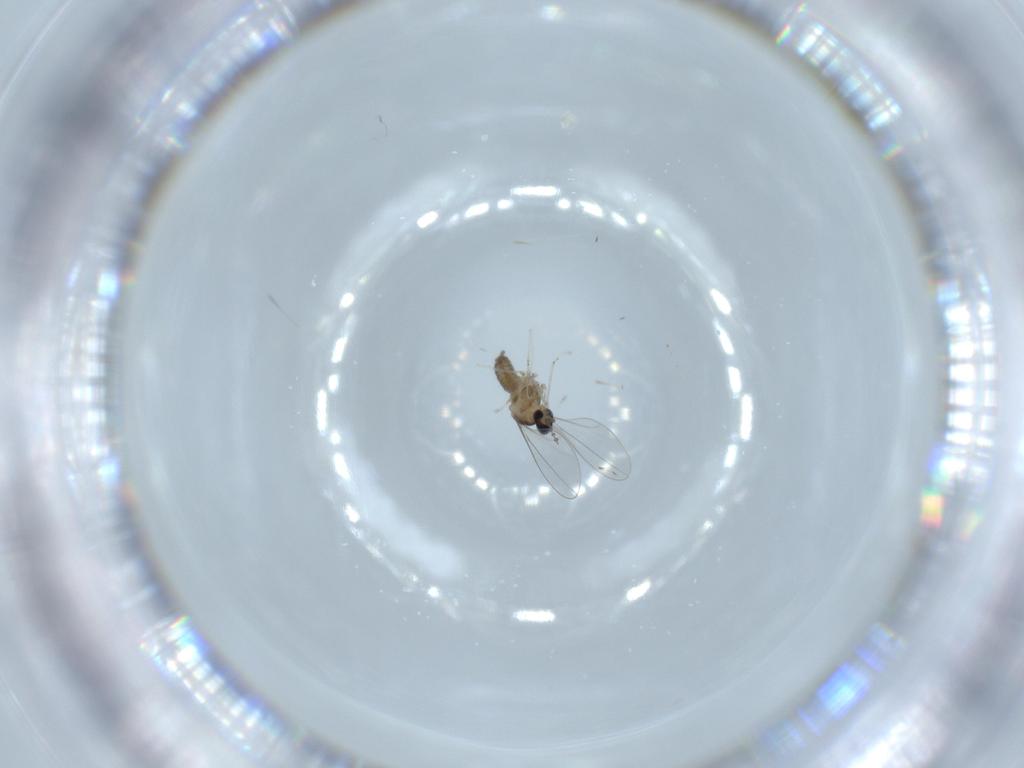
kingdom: Animalia
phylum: Arthropoda
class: Insecta
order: Diptera
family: Cecidomyiidae
